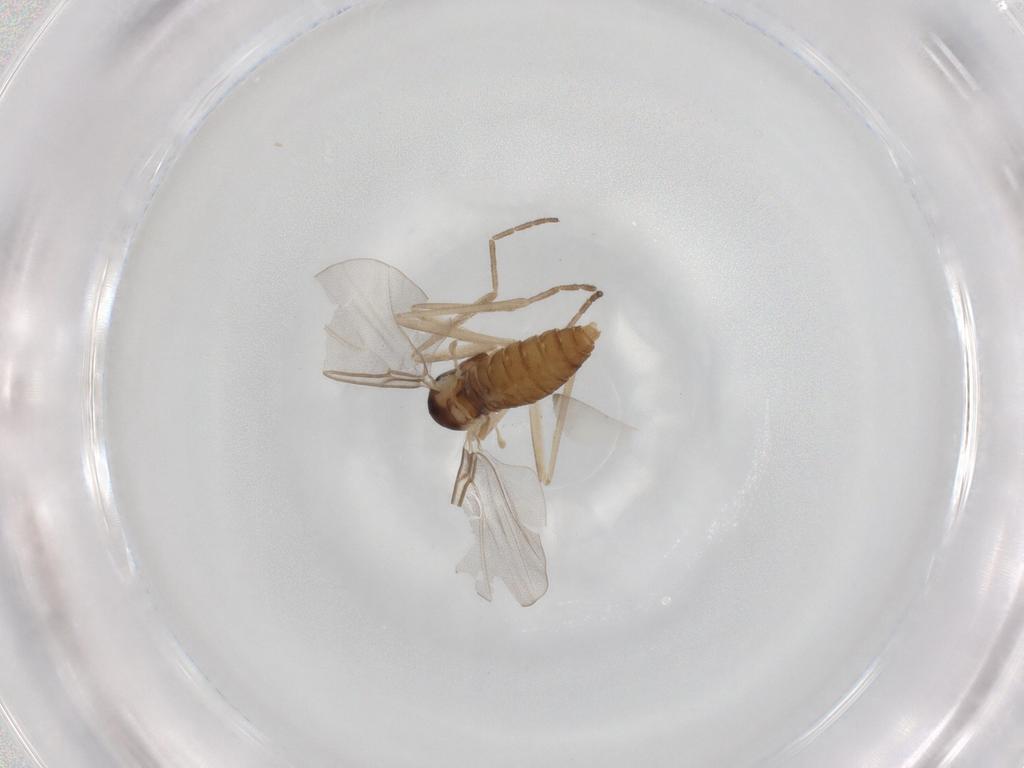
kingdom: Animalia
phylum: Arthropoda
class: Insecta
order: Diptera
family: Cecidomyiidae
